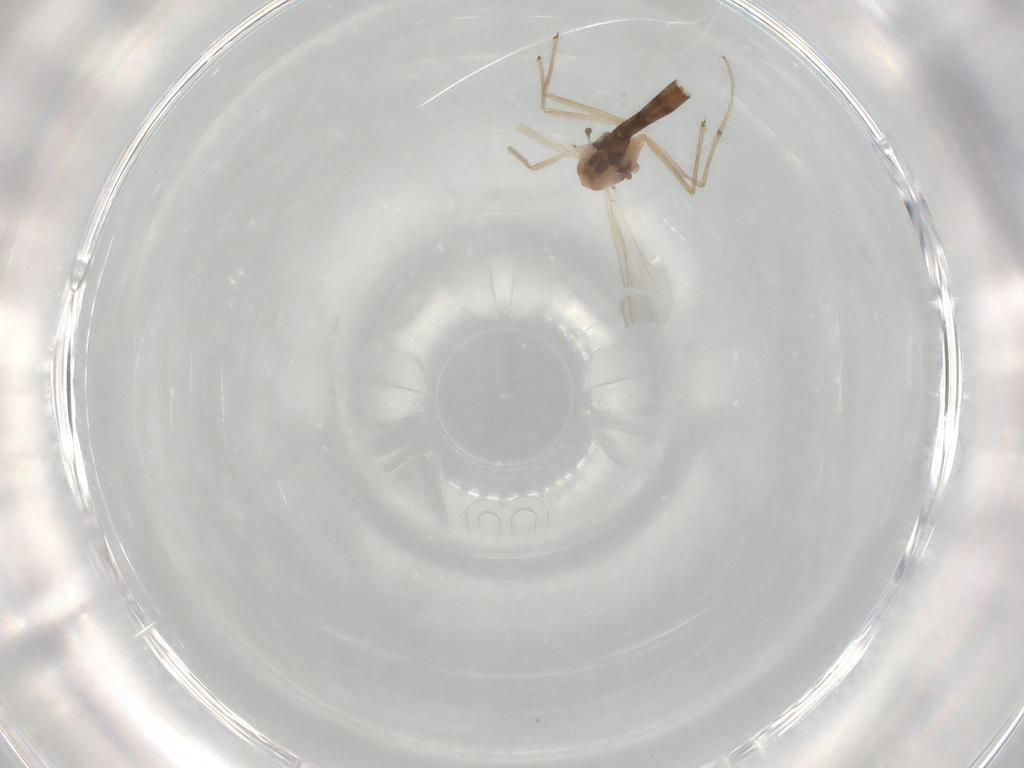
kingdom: Animalia
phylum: Arthropoda
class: Insecta
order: Diptera
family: Chironomidae
